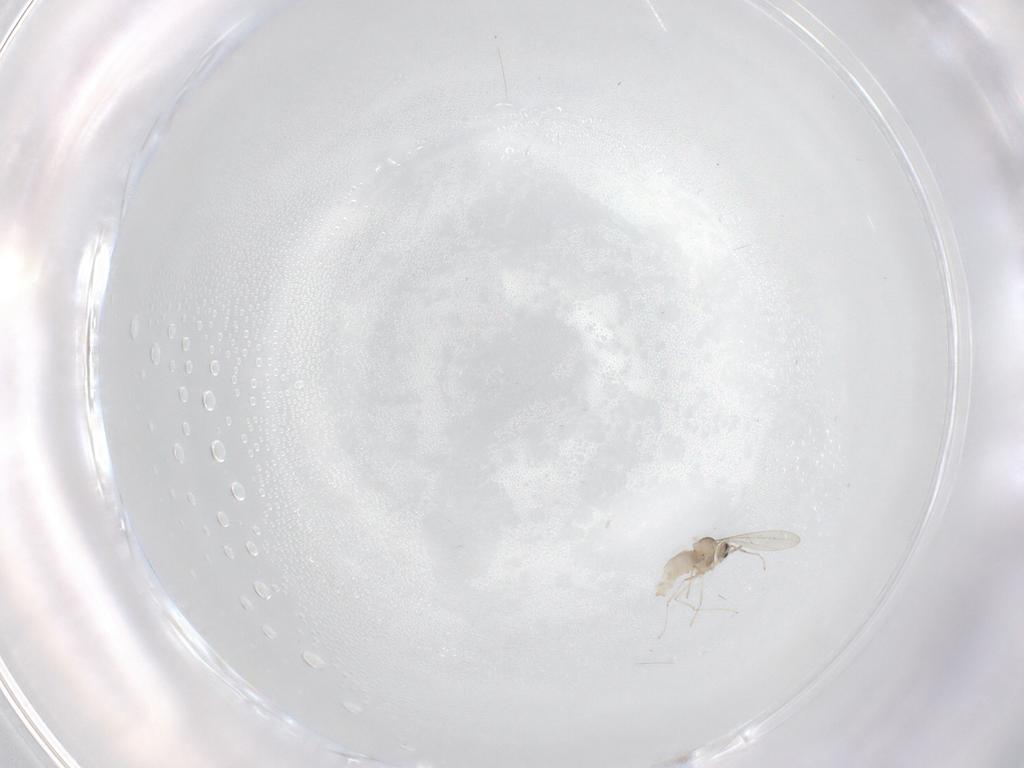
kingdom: Animalia
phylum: Arthropoda
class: Insecta
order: Diptera
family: Cecidomyiidae
